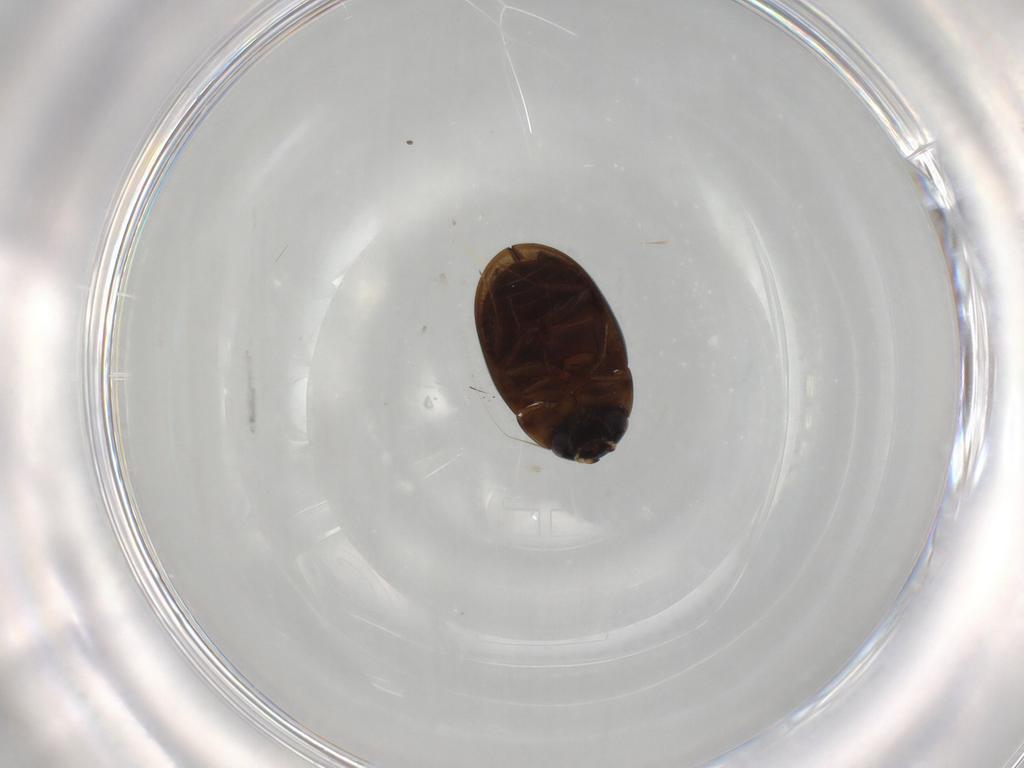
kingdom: Animalia
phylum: Arthropoda
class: Insecta
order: Coleoptera
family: Hydrophilidae
